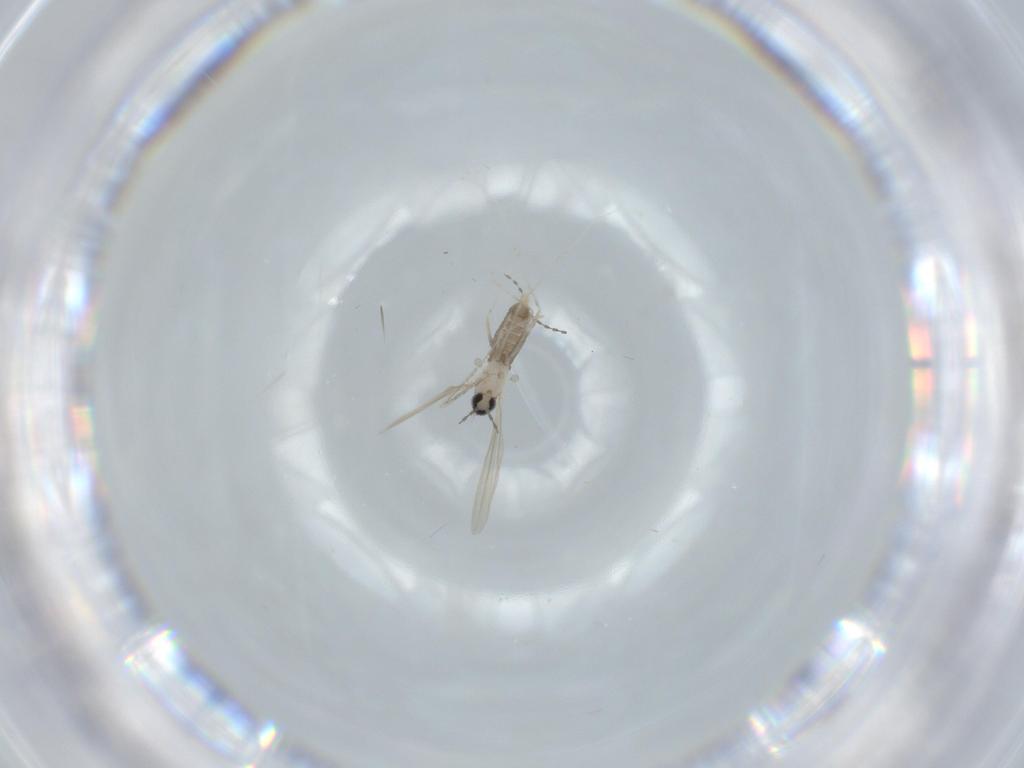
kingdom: Animalia
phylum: Arthropoda
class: Insecta
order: Diptera
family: Cecidomyiidae
